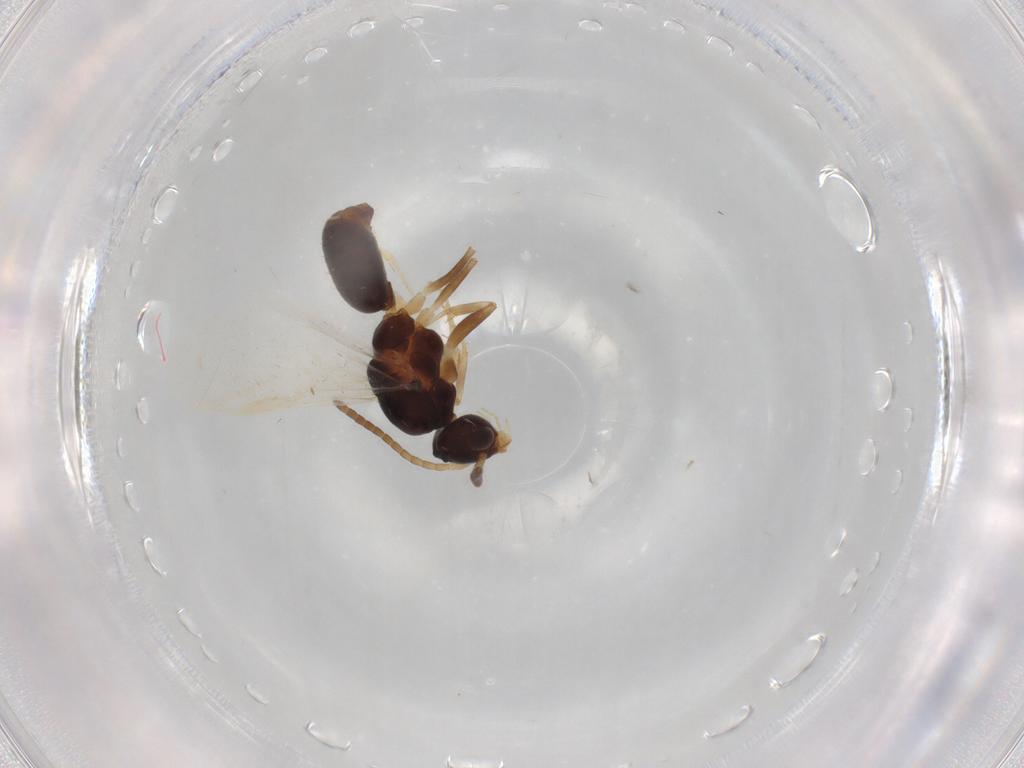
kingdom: Animalia
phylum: Arthropoda
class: Insecta
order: Hymenoptera
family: Formicidae
